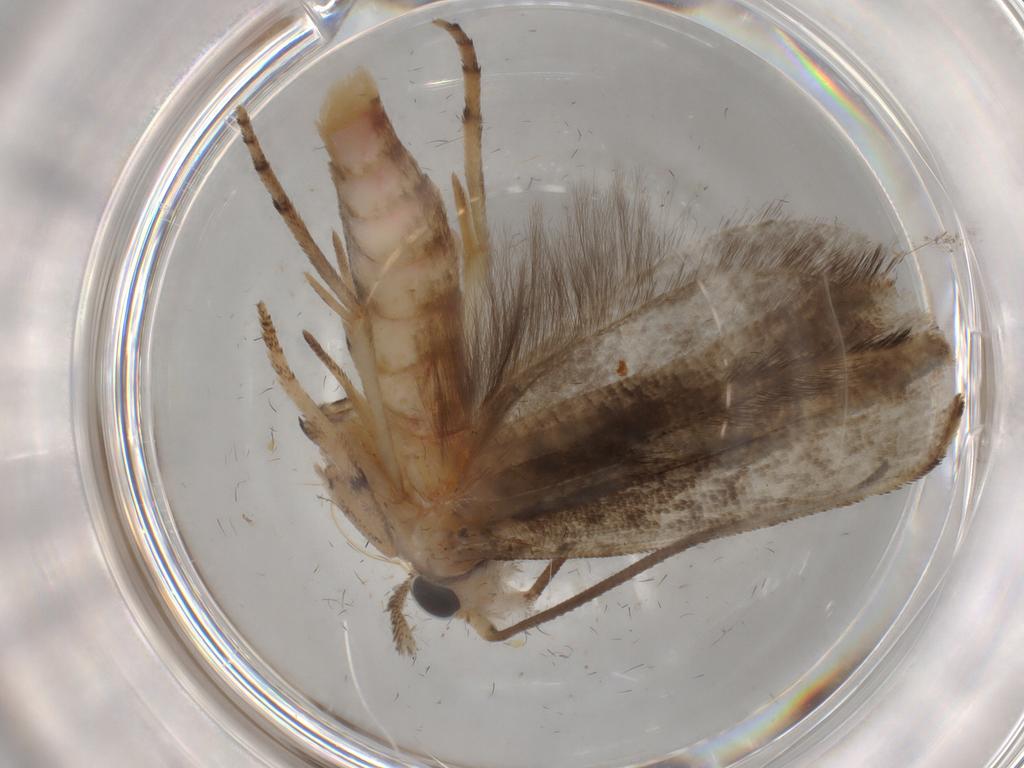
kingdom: Animalia
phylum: Arthropoda
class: Insecta
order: Lepidoptera
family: Yponomeutidae
